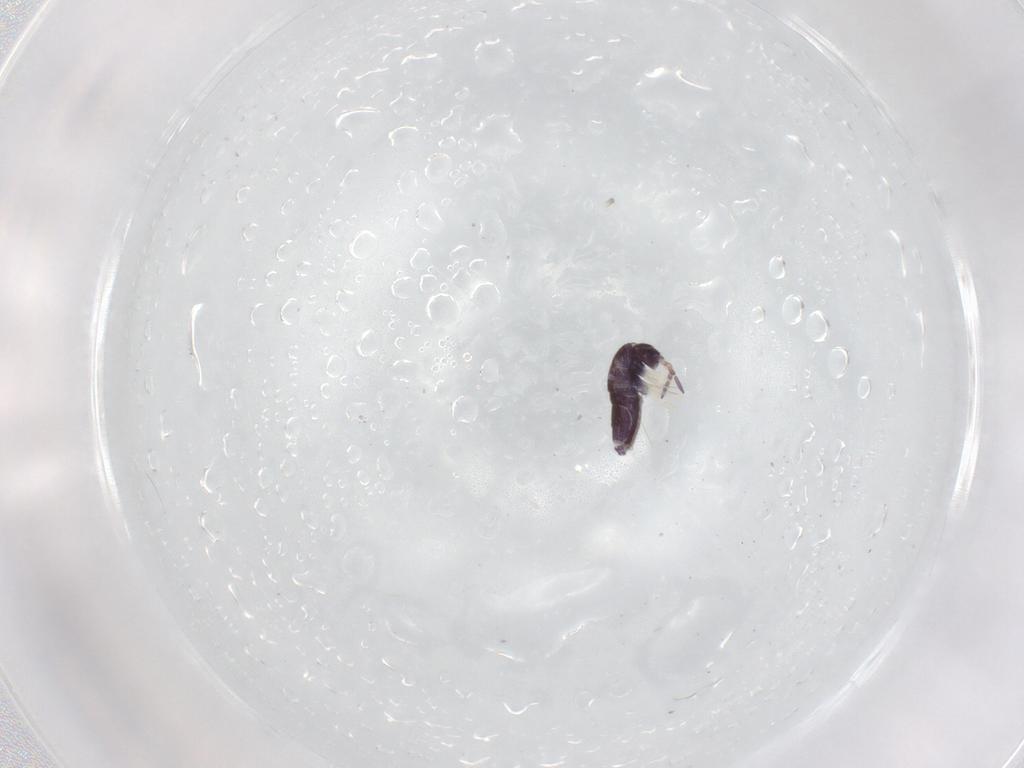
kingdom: Animalia
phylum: Arthropoda
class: Collembola
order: Entomobryomorpha
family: Entomobryidae
